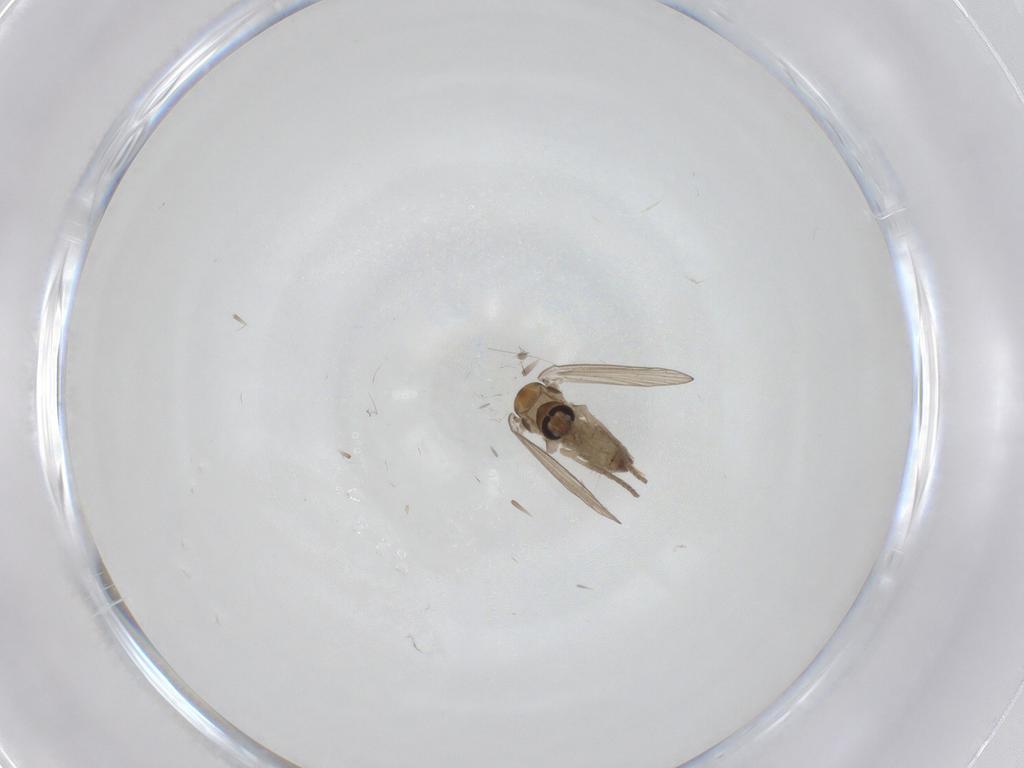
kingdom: Animalia
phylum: Arthropoda
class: Insecta
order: Diptera
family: Psychodidae
